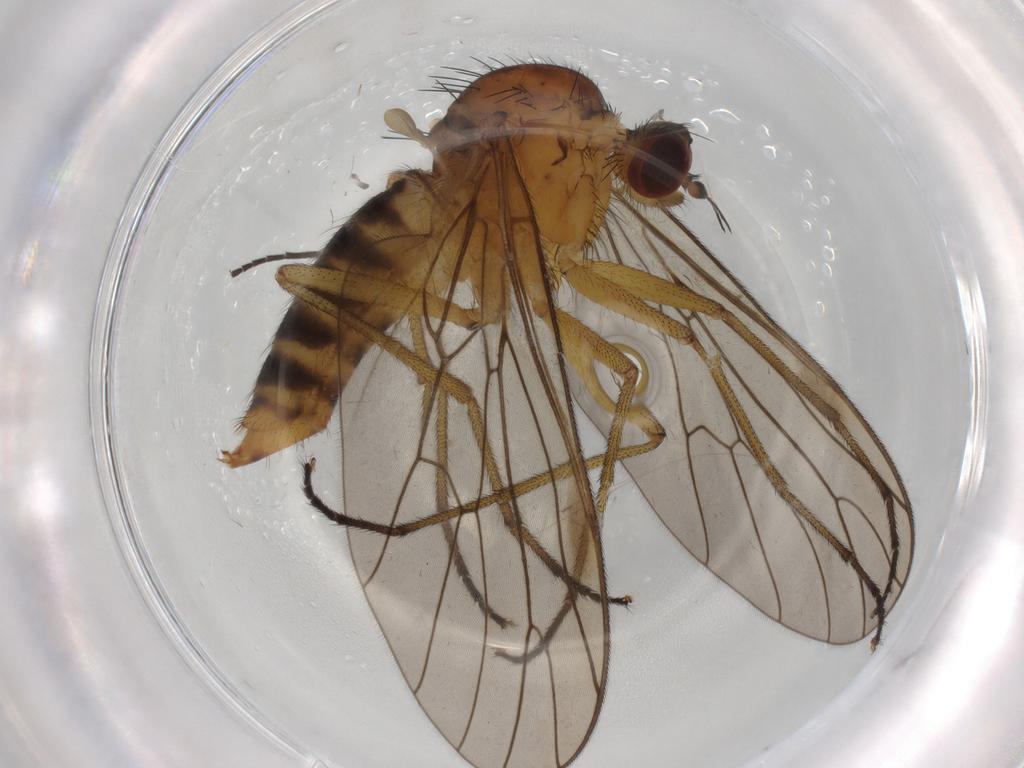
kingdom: Animalia
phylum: Arthropoda
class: Insecta
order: Diptera
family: Brachystomatidae
